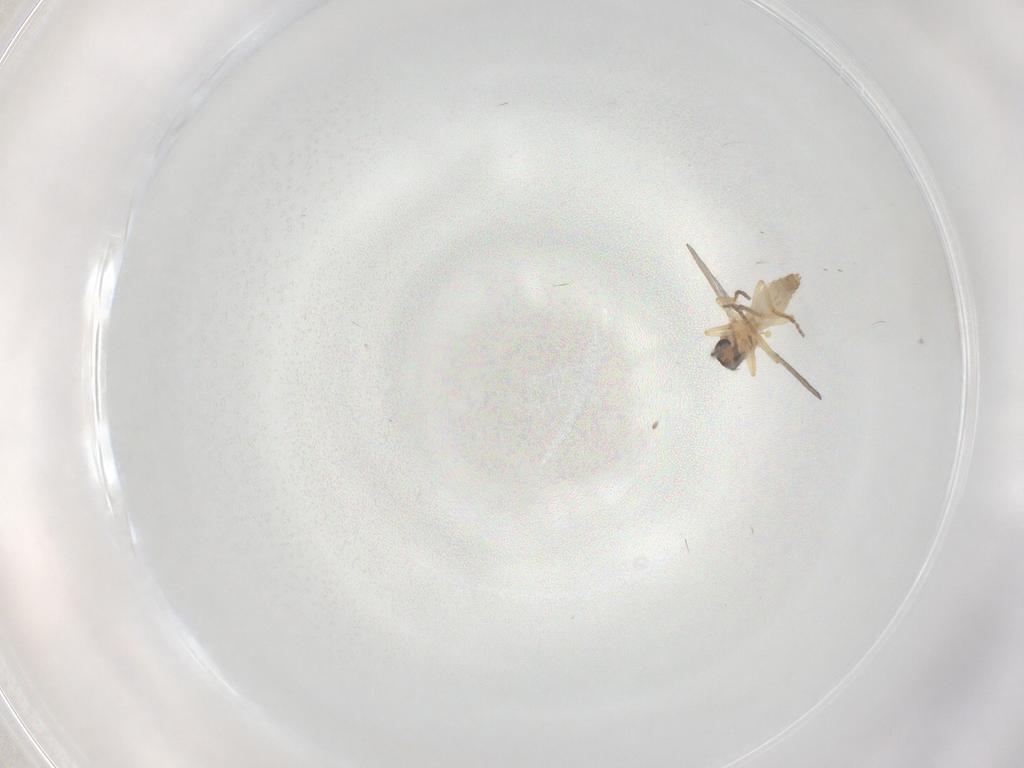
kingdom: Animalia
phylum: Arthropoda
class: Insecta
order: Diptera
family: Ceratopogonidae
